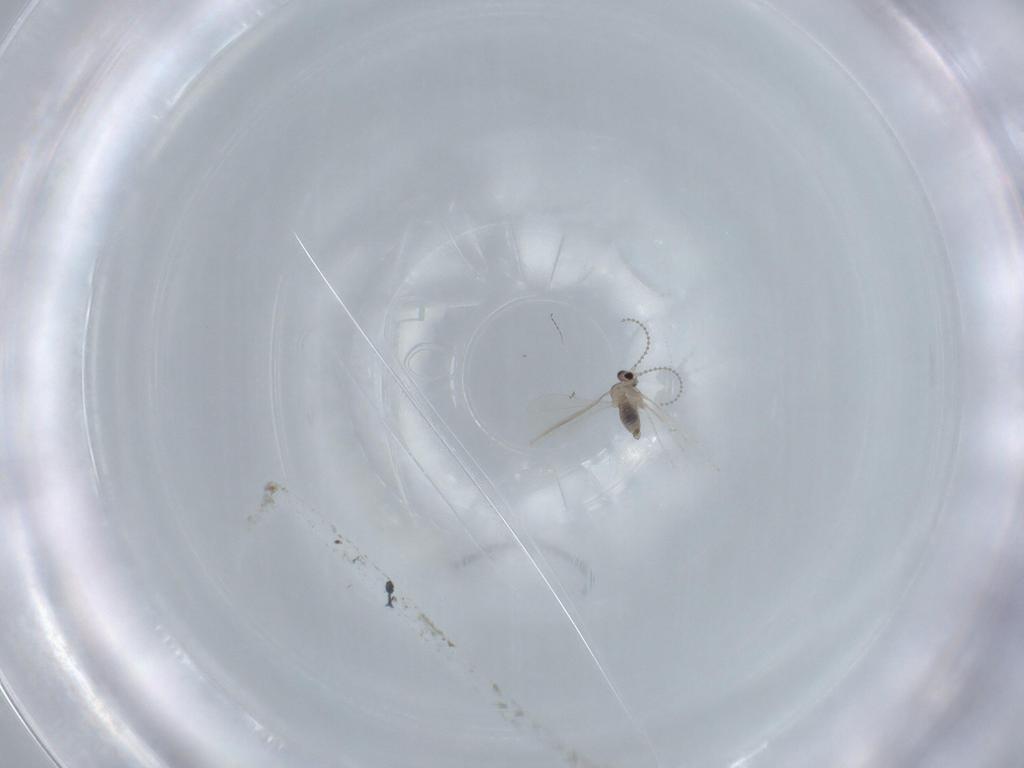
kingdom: Animalia
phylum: Arthropoda
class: Insecta
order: Diptera
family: Cecidomyiidae
